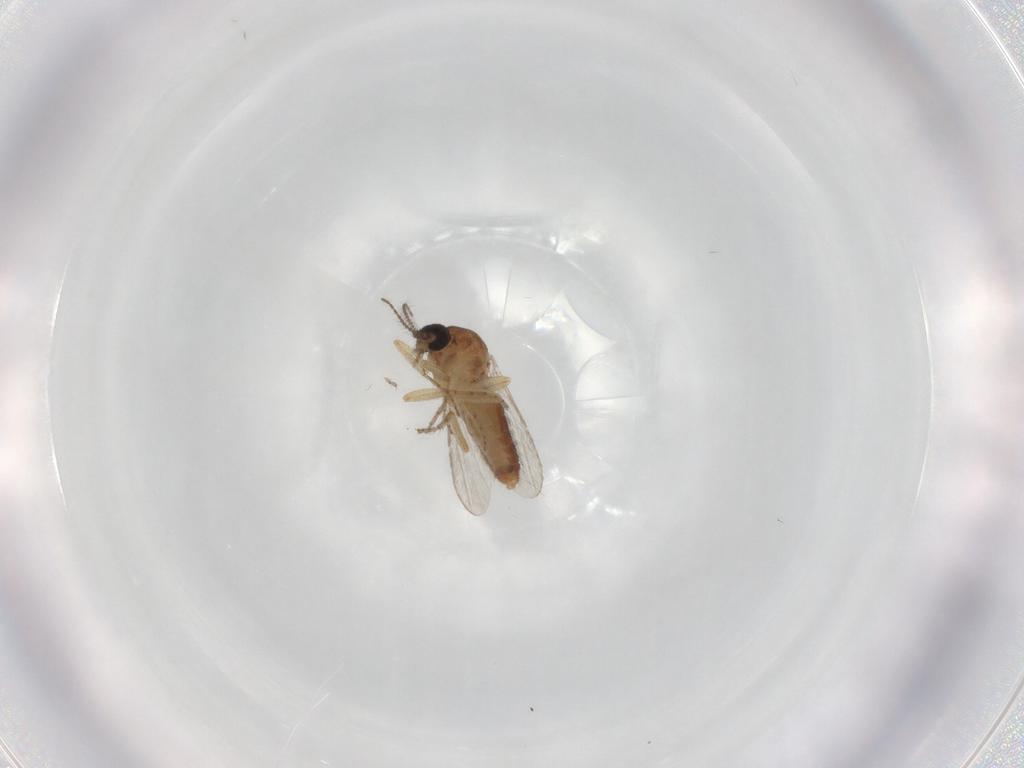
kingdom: Animalia
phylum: Arthropoda
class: Insecta
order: Diptera
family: Ceratopogonidae
